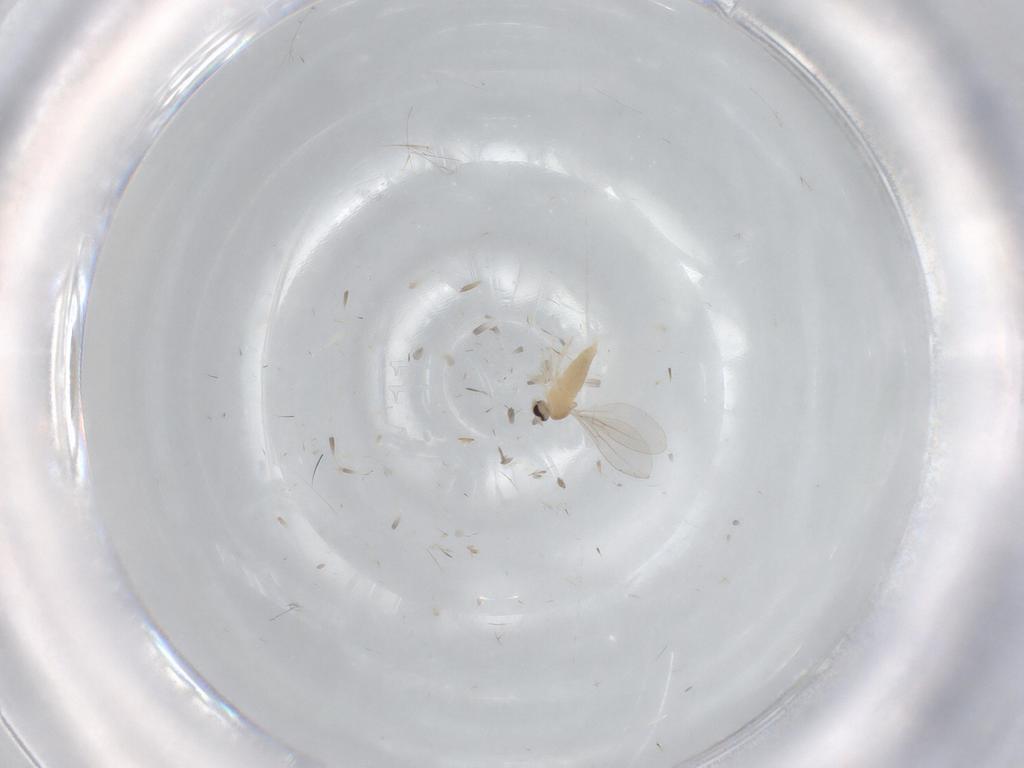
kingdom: Animalia
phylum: Arthropoda
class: Insecta
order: Diptera
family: Cecidomyiidae
